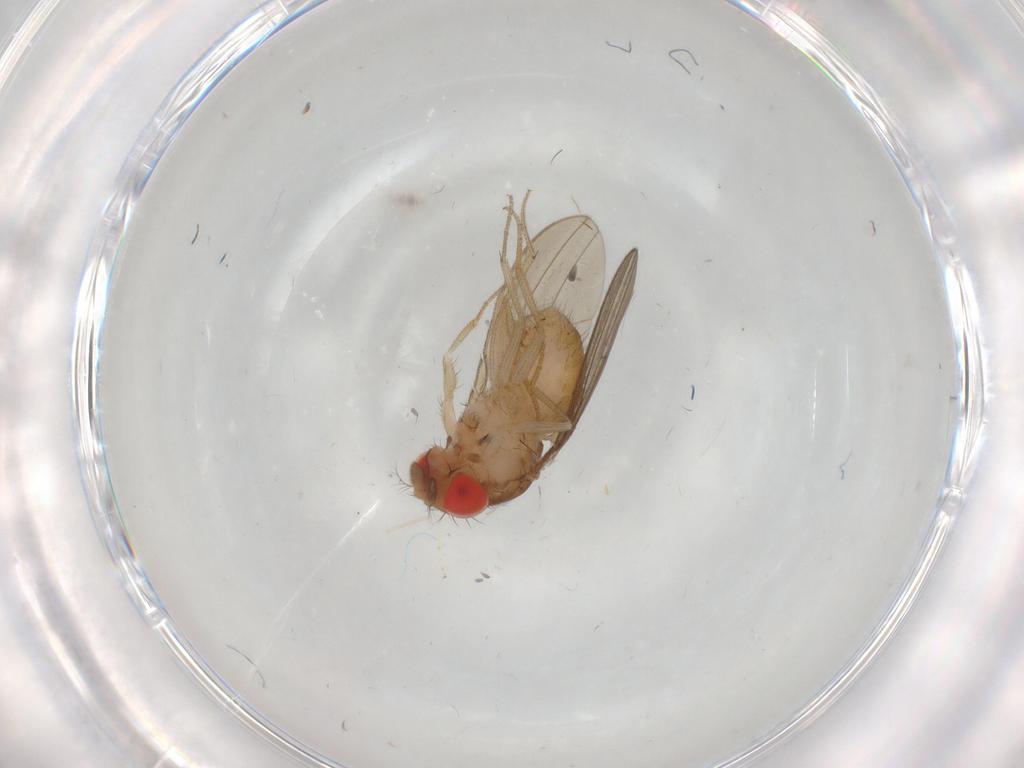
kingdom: Animalia
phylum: Arthropoda
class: Insecta
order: Diptera
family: Drosophilidae
